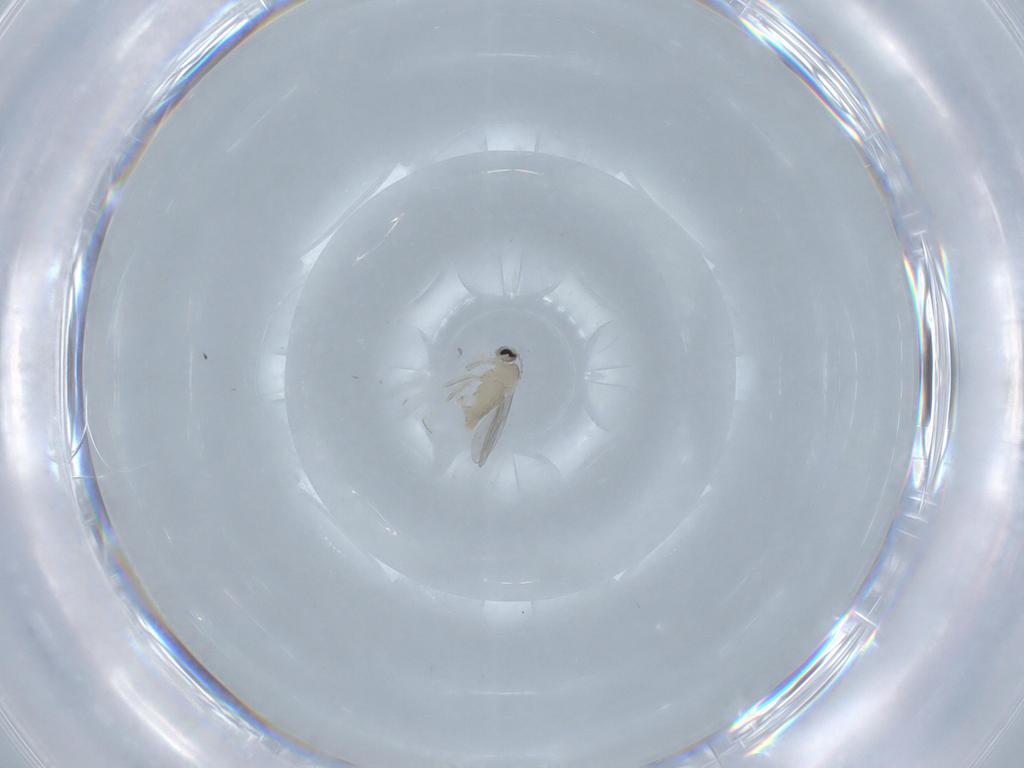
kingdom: Animalia
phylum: Arthropoda
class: Insecta
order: Diptera
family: Cecidomyiidae
